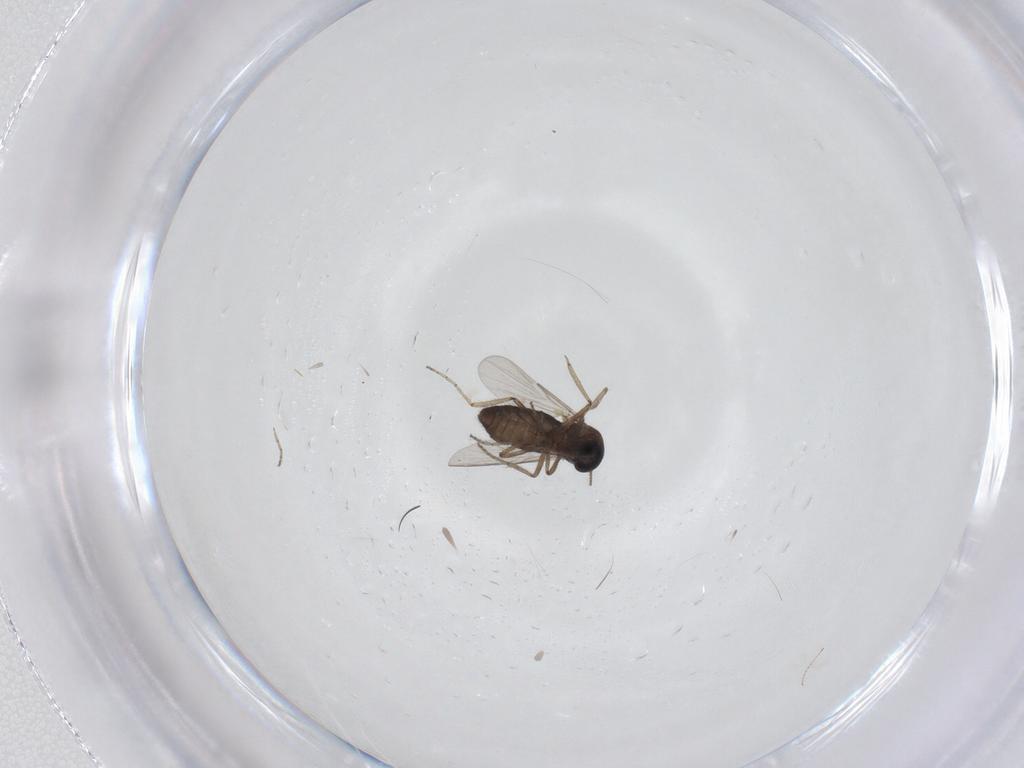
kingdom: Animalia
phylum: Arthropoda
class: Insecta
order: Diptera
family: Ceratopogonidae
